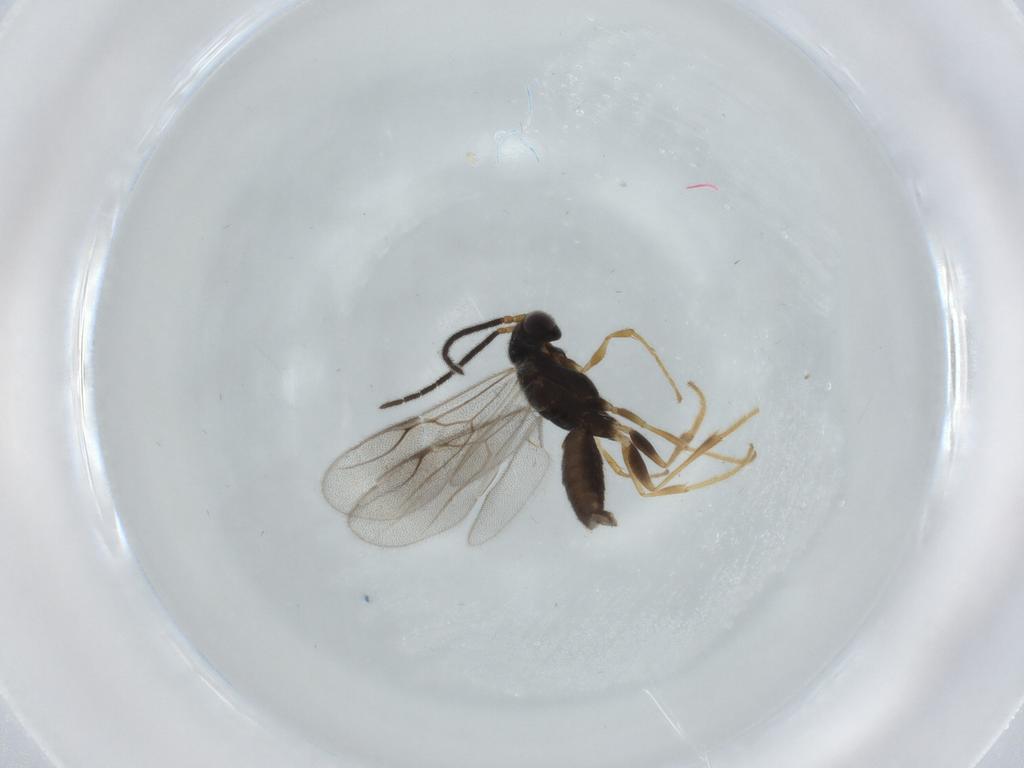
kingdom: Animalia
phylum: Arthropoda
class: Insecta
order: Hymenoptera
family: Dryinidae
